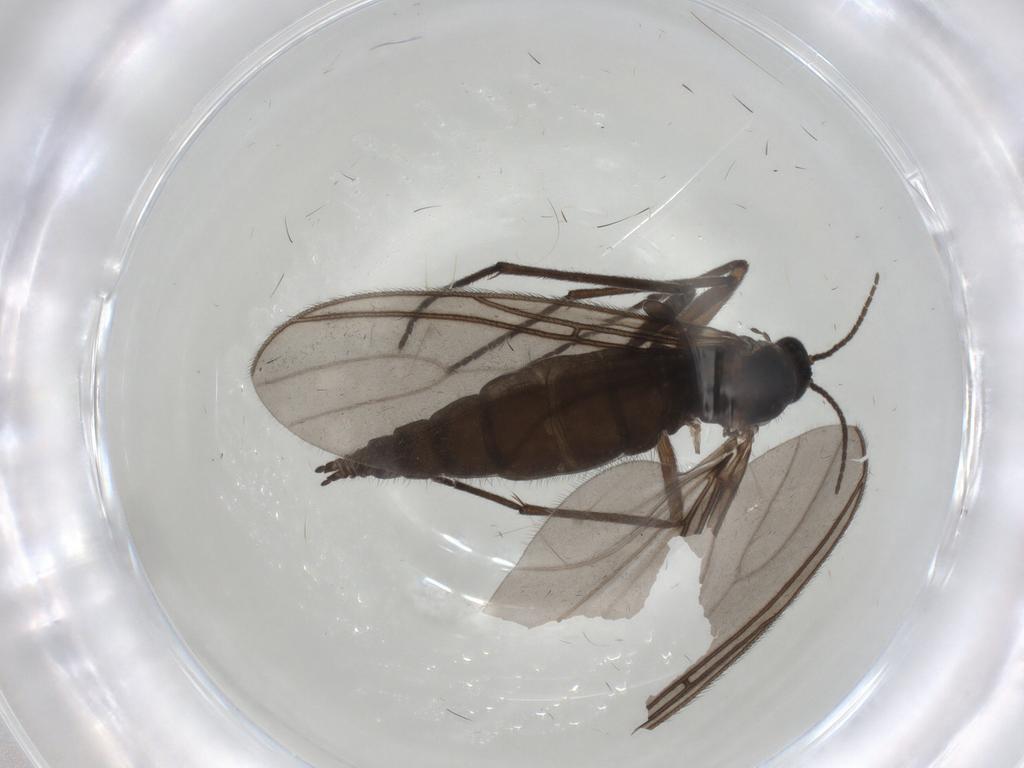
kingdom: Animalia
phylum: Arthropoda
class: Insecta
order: Diptera
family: Sciaridae
